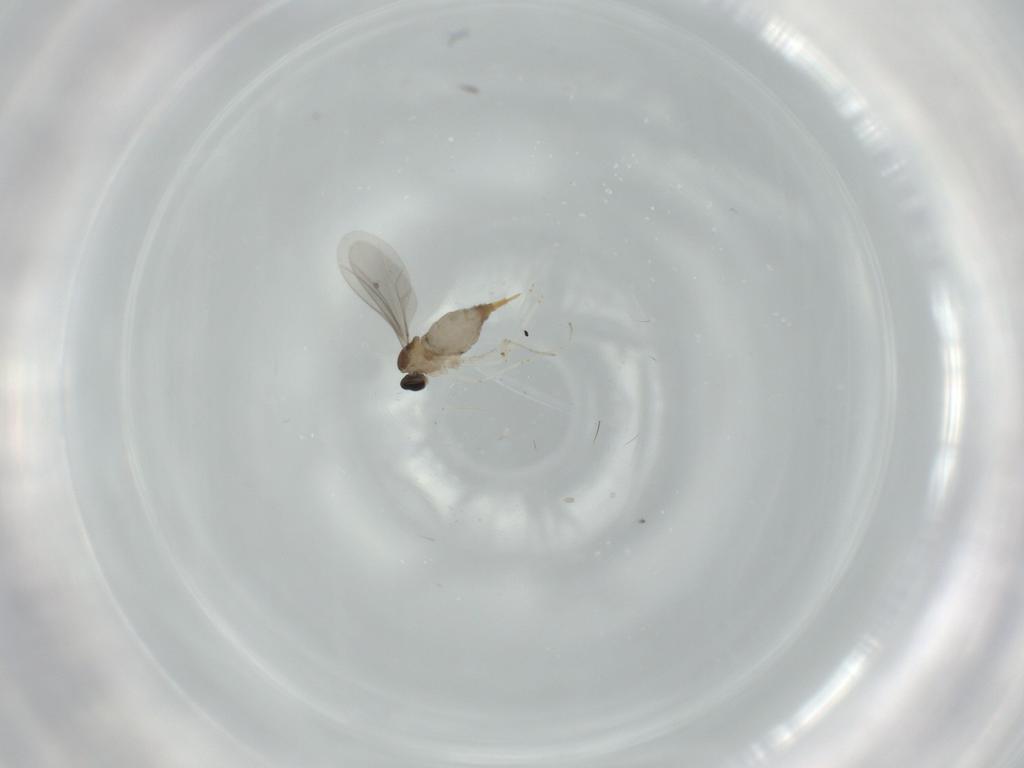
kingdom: Animalia
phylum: Arthropoda
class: Insecta
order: Diptera
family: Cecidomyiidae
